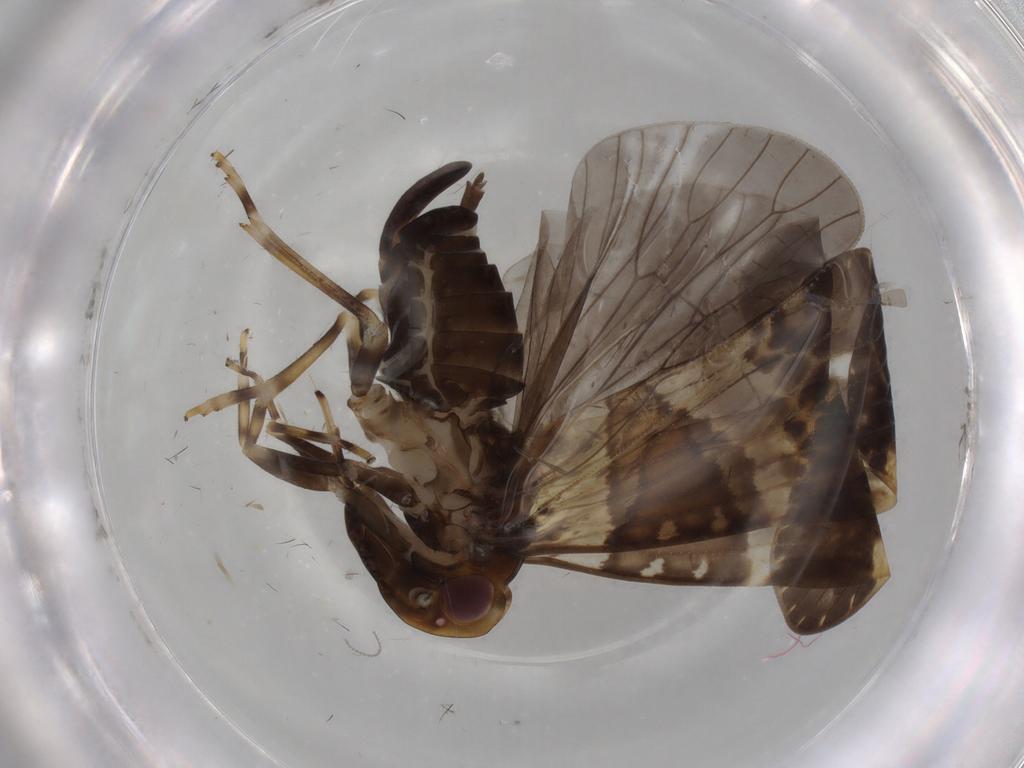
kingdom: Animalia
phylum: Arthropoda
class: Insecta
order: Hemiptera
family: Cixiidae
